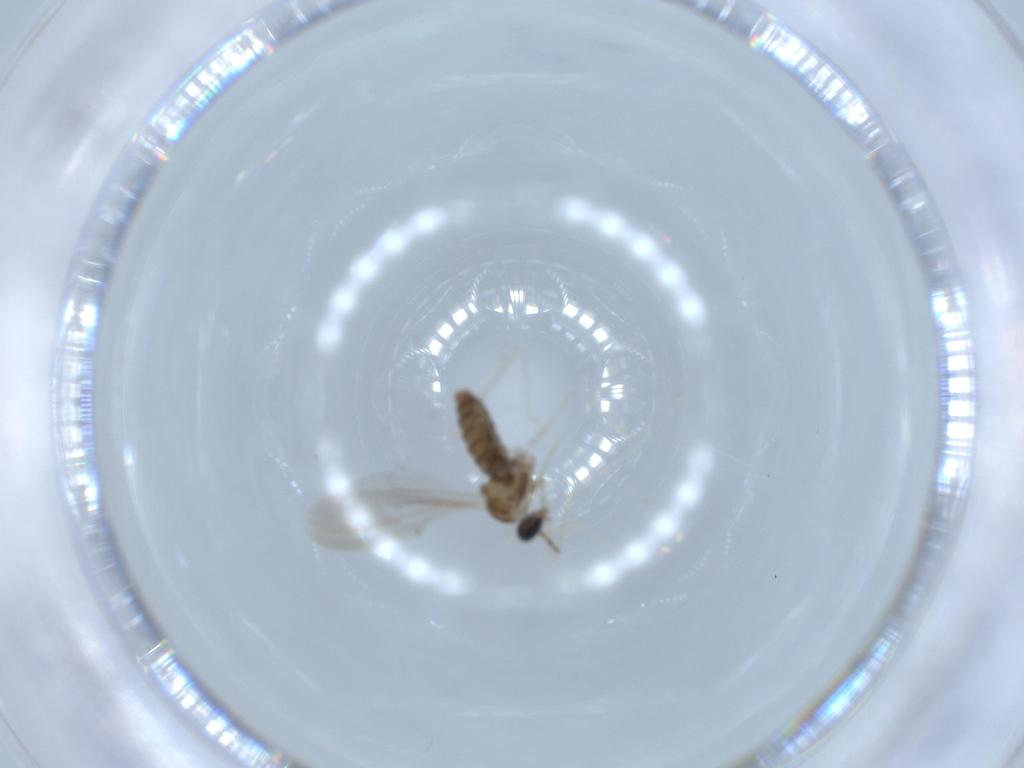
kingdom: Animalia
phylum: Arthropoda
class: Insecta
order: Diptera
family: Cecidomyiidae
